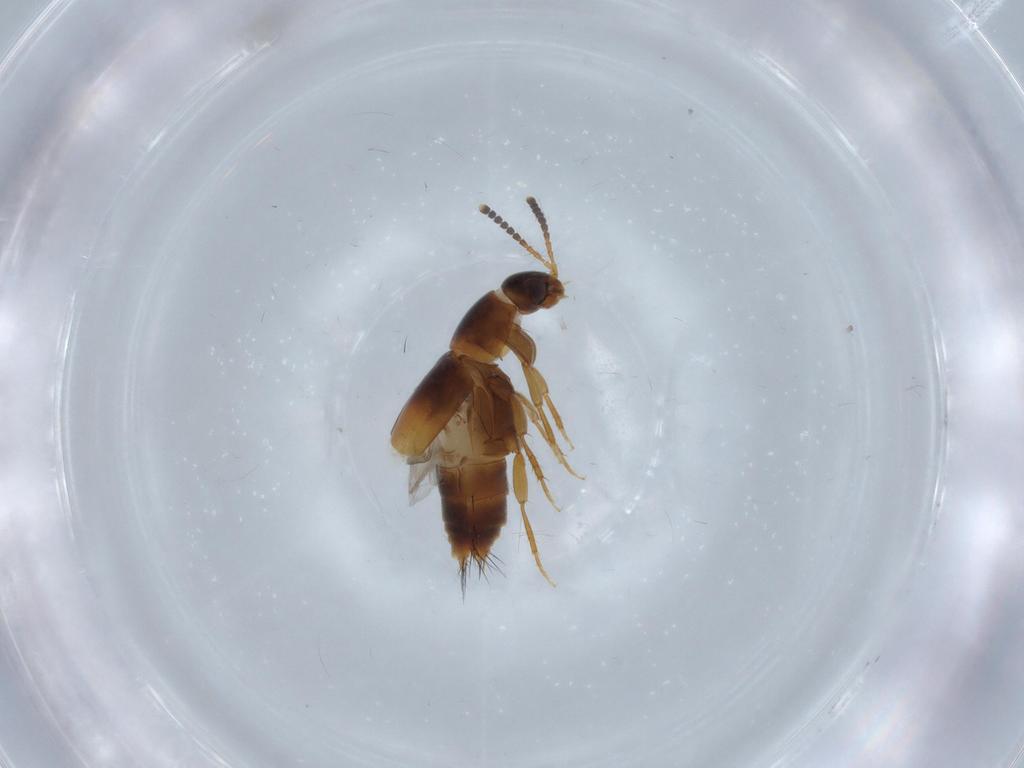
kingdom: Animalia
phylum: Arthropoda
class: Insecta
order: Coleoptera
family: Staphylinidae
